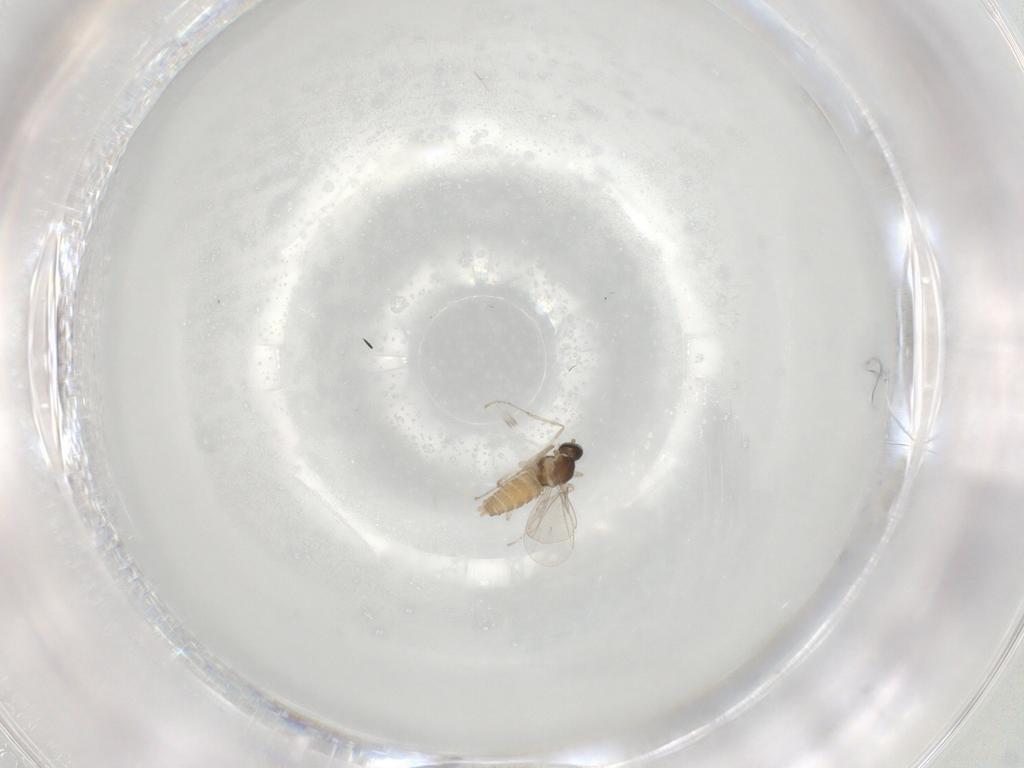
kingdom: Animalia
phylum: Arthropoda
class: Insecta
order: Diptera
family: Cecidomyiidae
